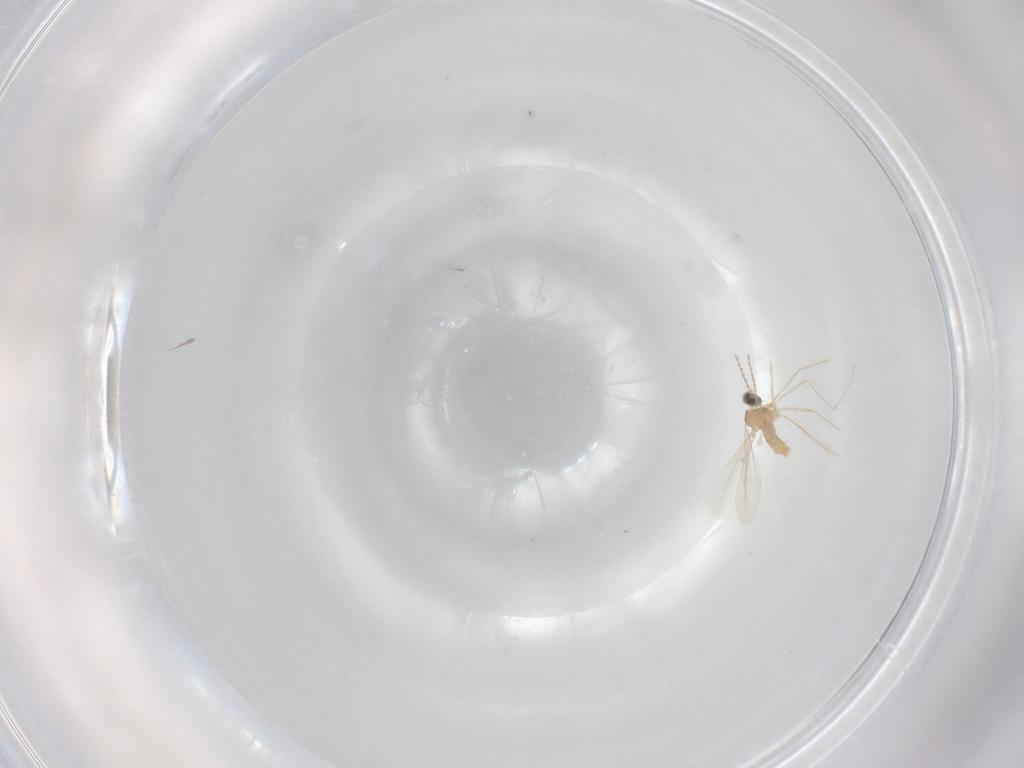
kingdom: Animalia
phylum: Arthropoda
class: Insecta
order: Diptera
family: Cecidomyiidae
